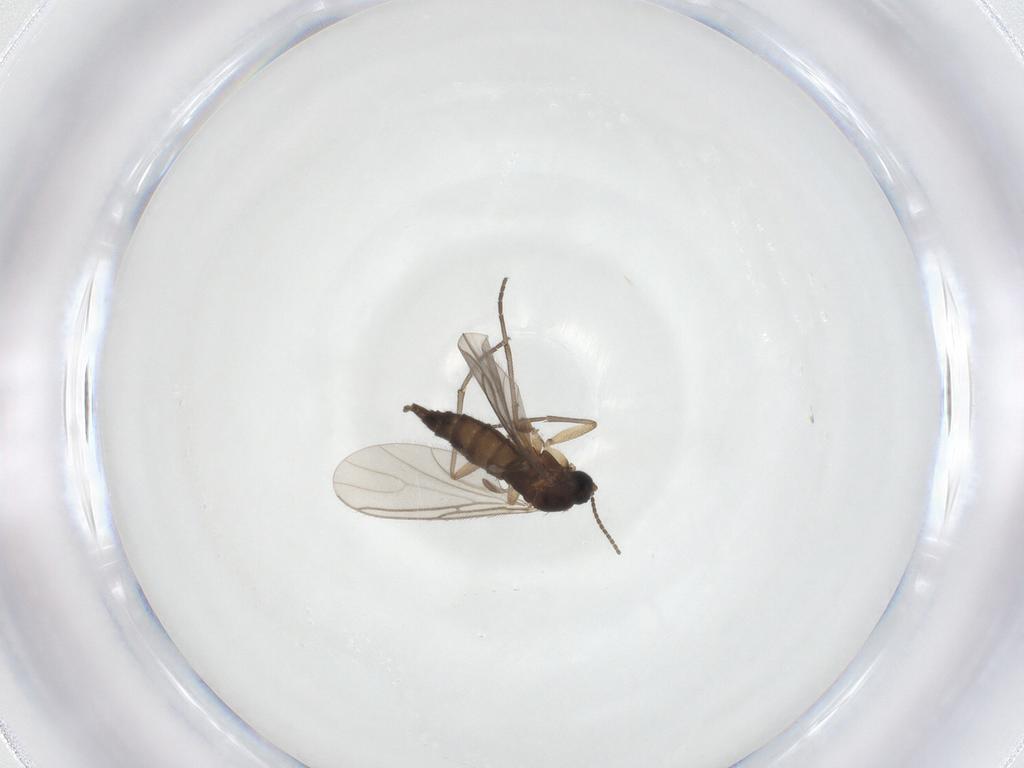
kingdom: Animalia
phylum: Arthropoda
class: Insecta
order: Diptera
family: Sciaridae
